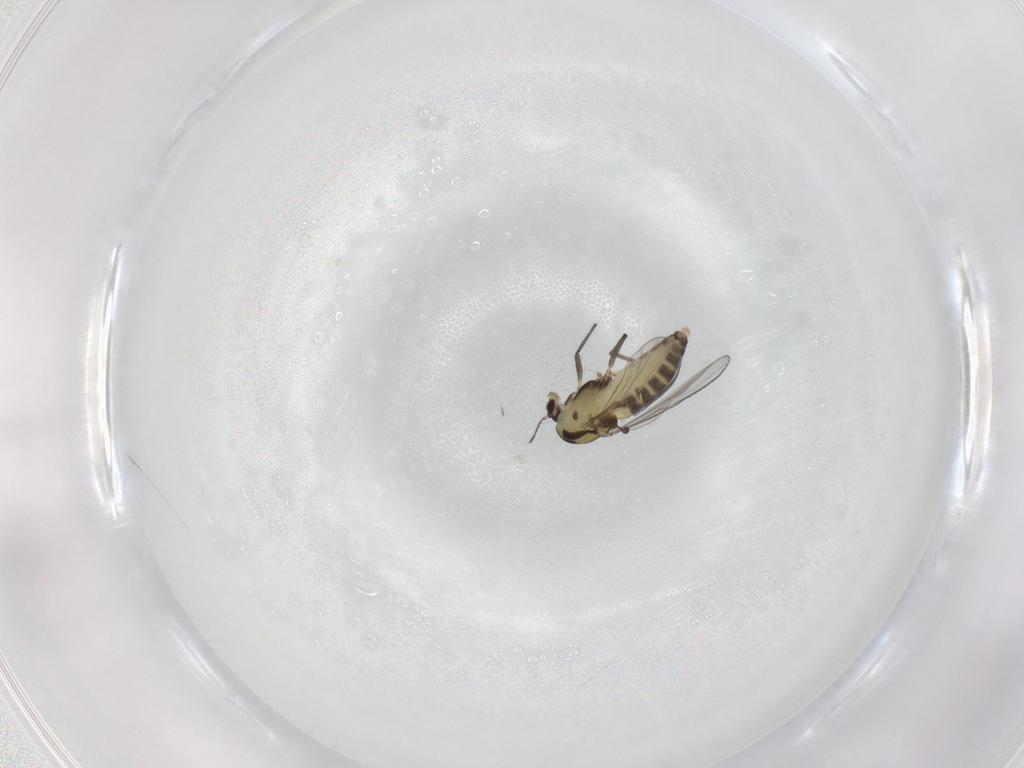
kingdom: Animalia
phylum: Arthropoda
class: Insecta
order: Diptera
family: Chironomidae
